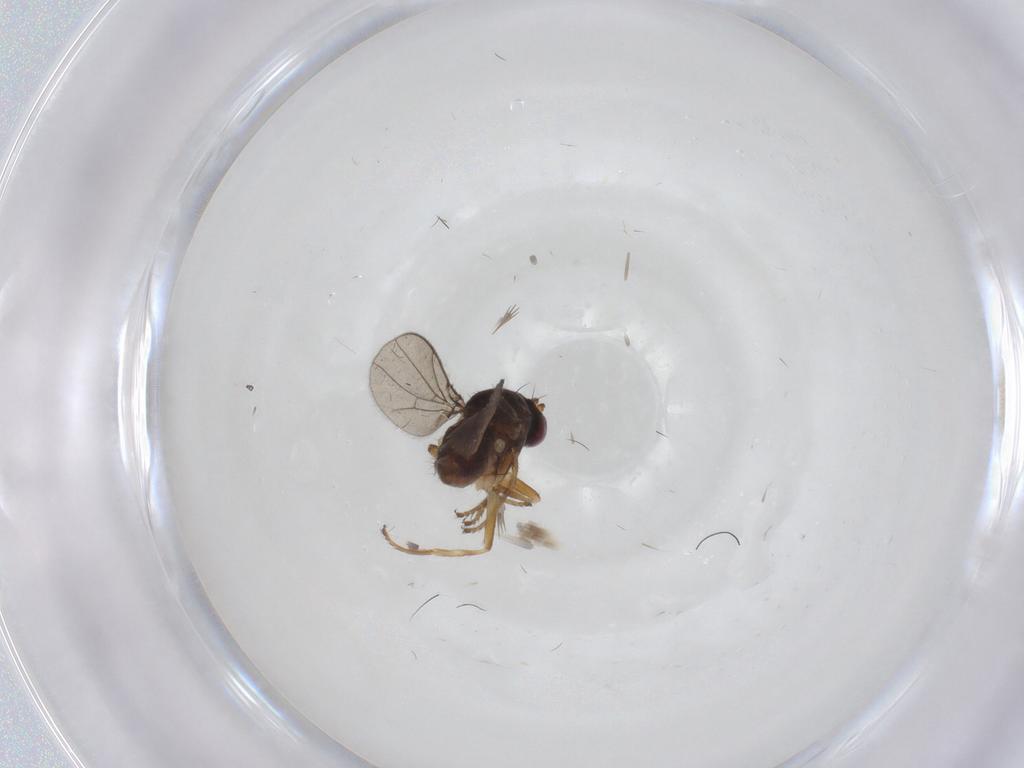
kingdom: Animalia
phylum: Arthropoda
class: Insecta
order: Diptera
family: Ephydridae
